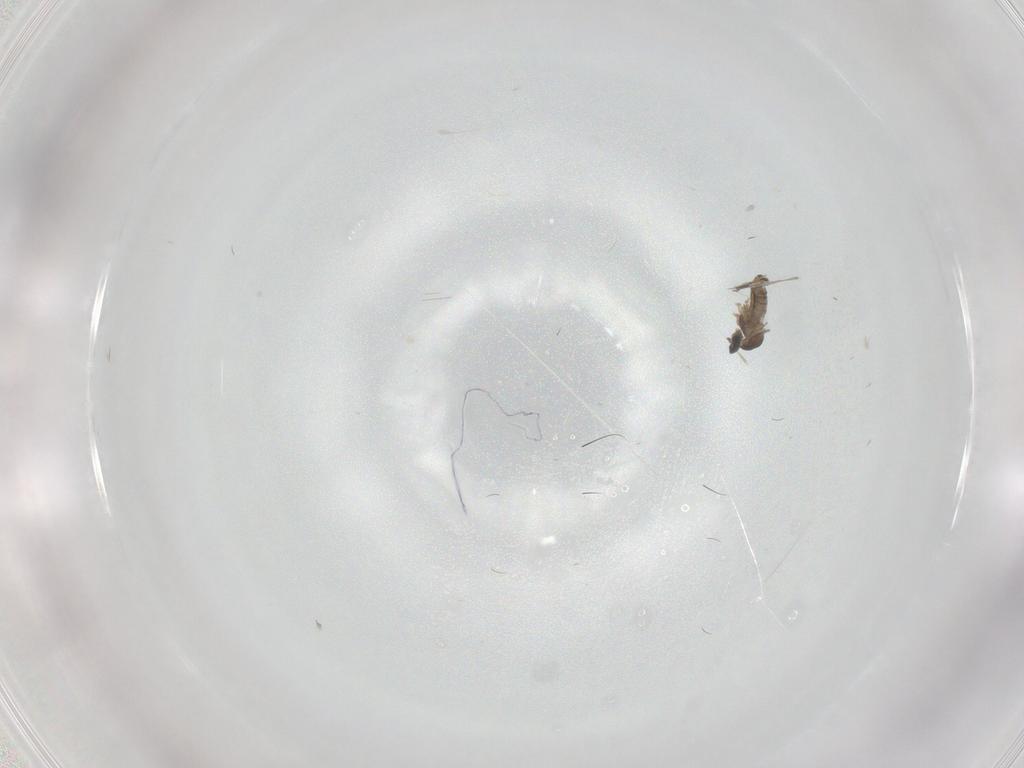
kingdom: Animalia
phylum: Arthropoda
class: Insecta
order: Diptera
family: Cecidomyiidae
